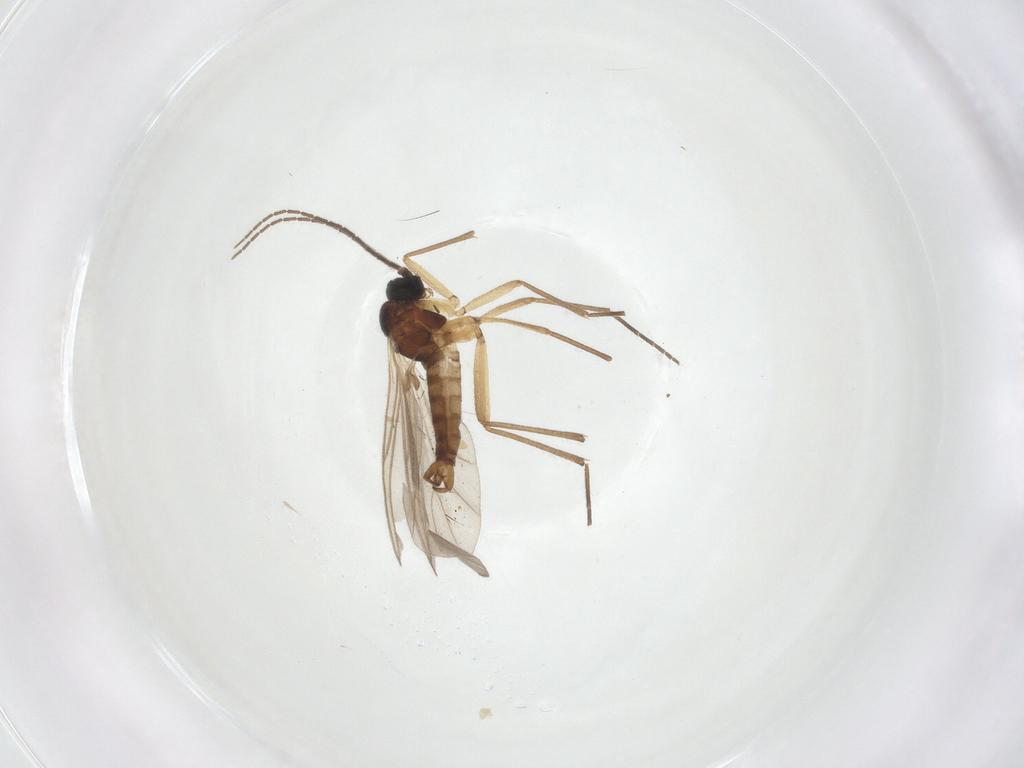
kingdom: Animalia
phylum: Arthropoda
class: Insecta
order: Diptera
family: Sciaridae
